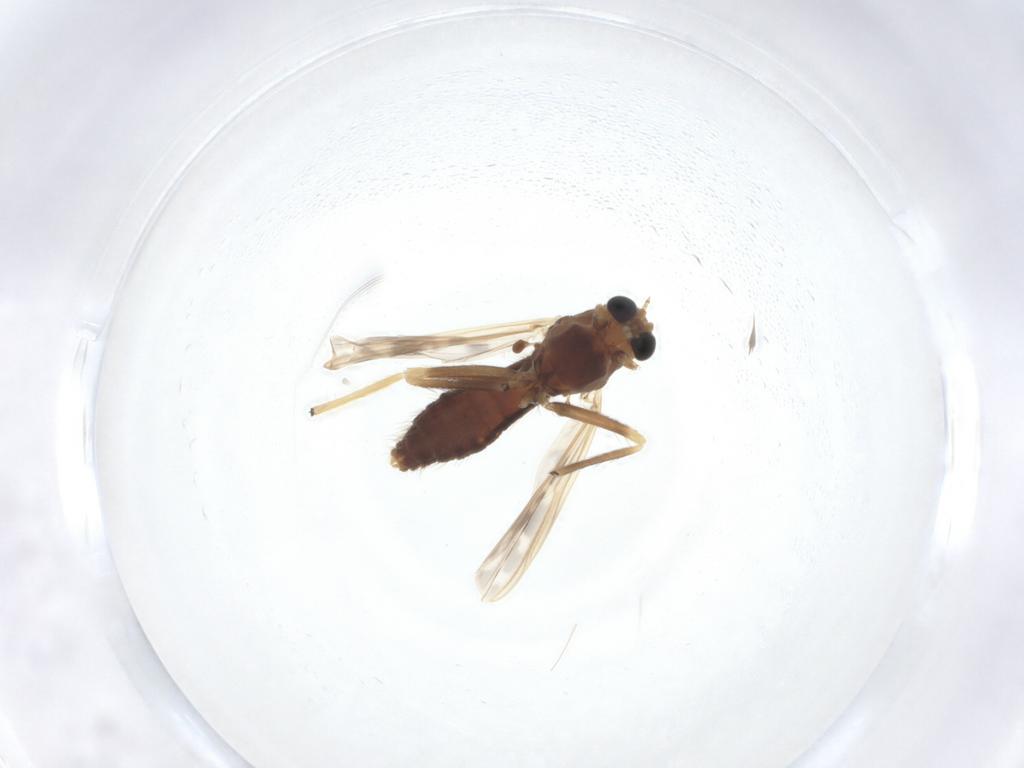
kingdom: Animalia
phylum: Arthropoda
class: Insecta
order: Diptera
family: Chironomidae
